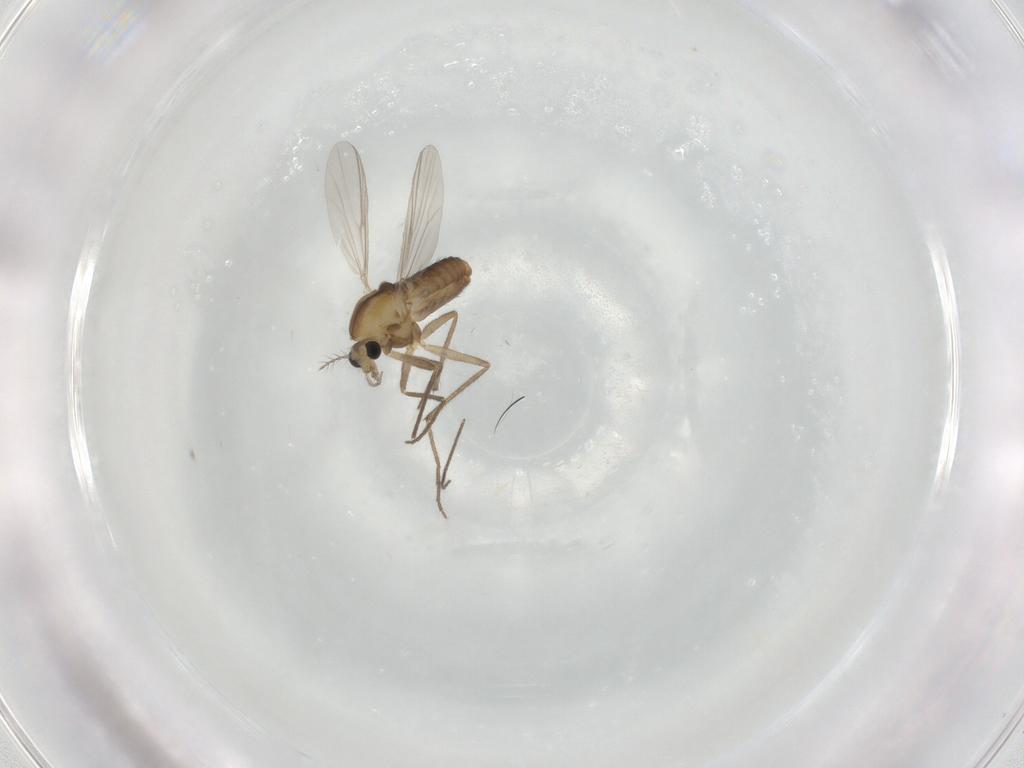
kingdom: Animalia
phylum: Arthropoda
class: Insecta
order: Diptera
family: Chironomidae
